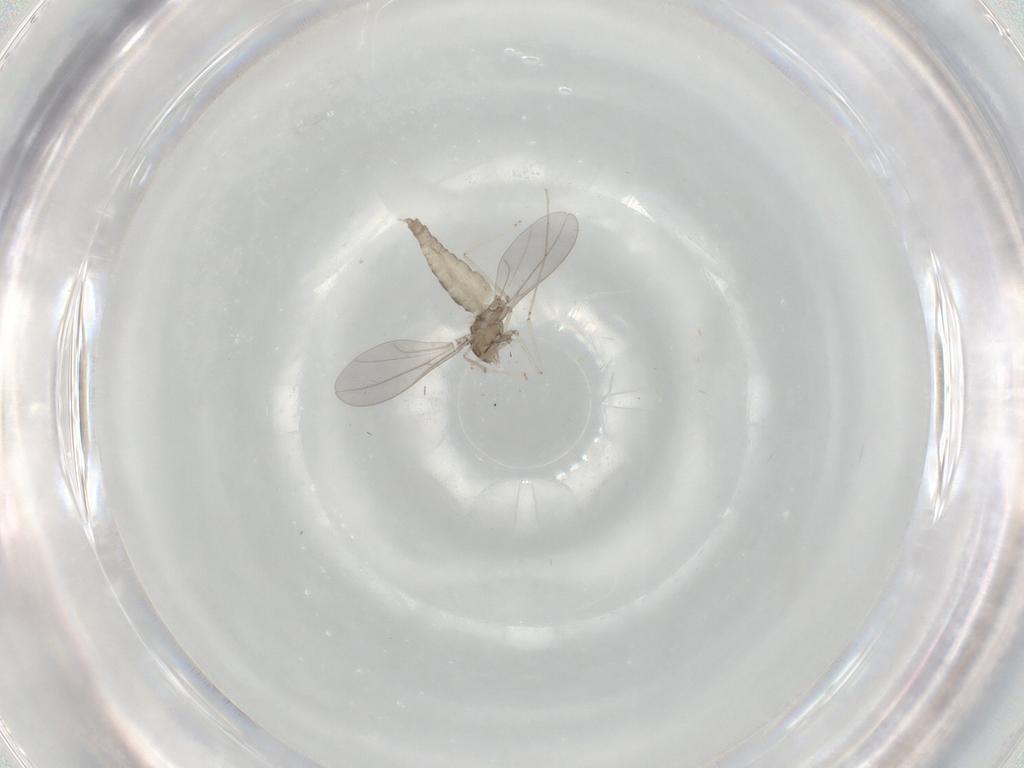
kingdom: Animalia
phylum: Arthropoda
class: Insecta
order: Diptera
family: Cecidomyiidae
